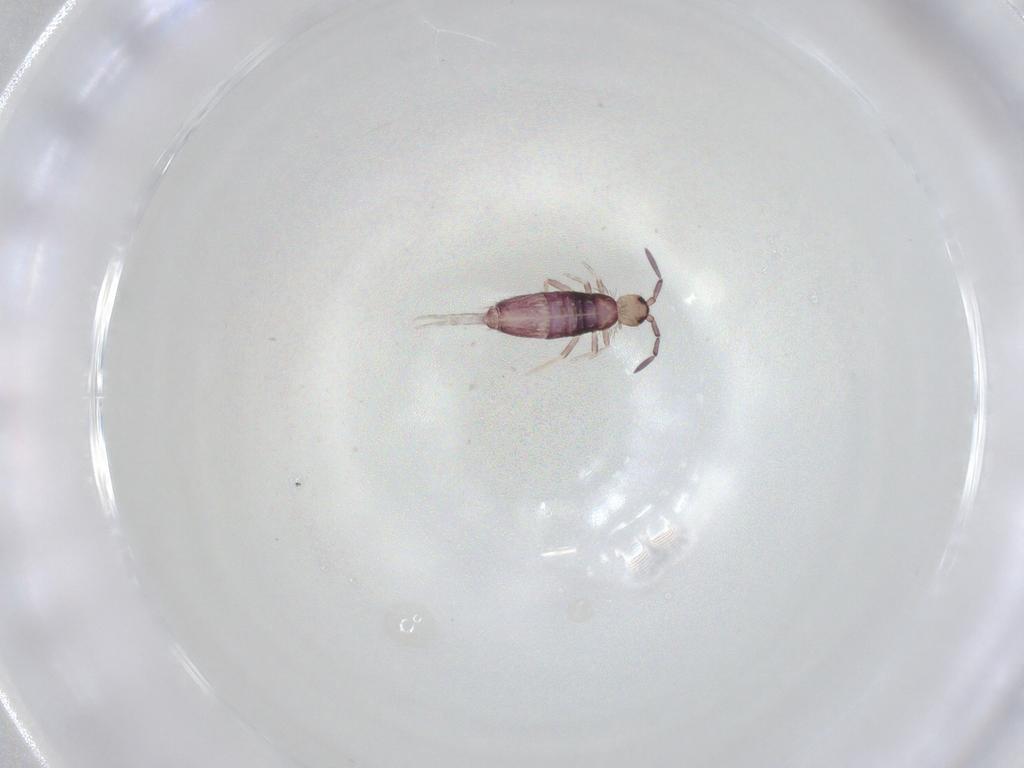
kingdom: Animalia
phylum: Arthropoda
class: Collembola
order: Entomobryomorpha
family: Entomobryidae
